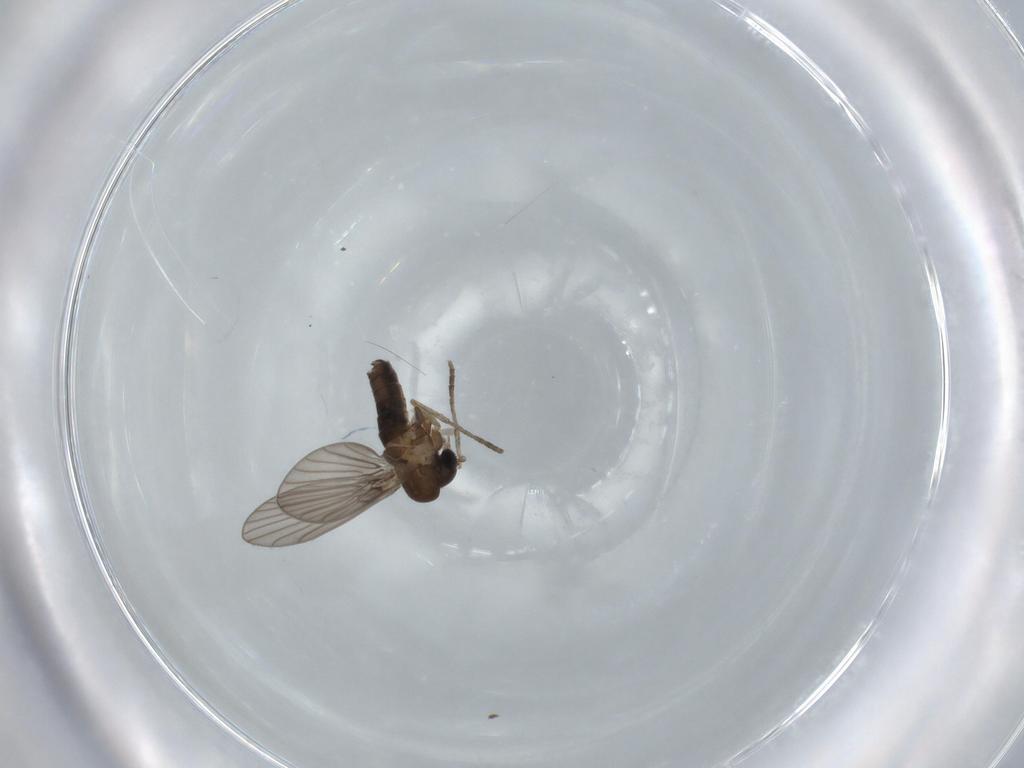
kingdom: Animalia
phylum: Arthropoda
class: Insecta
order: Diptera
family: Psychodidae
